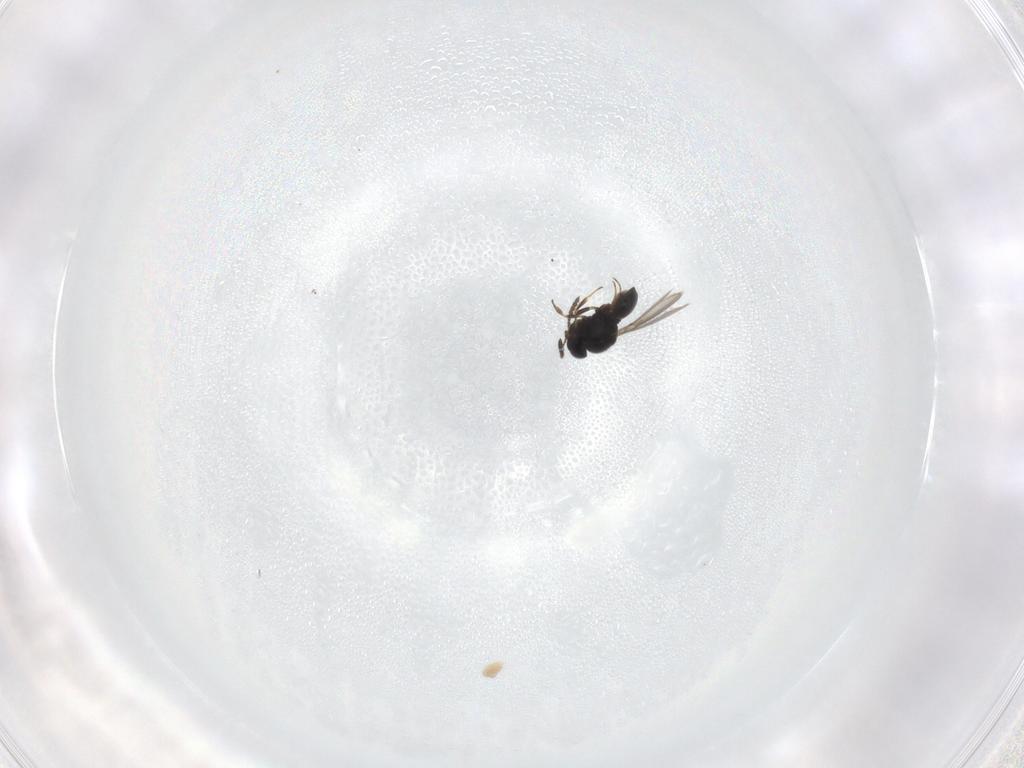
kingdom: Animalia
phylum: Arthropoda
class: Insecta
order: Hymenoptera
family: Scelionidae
